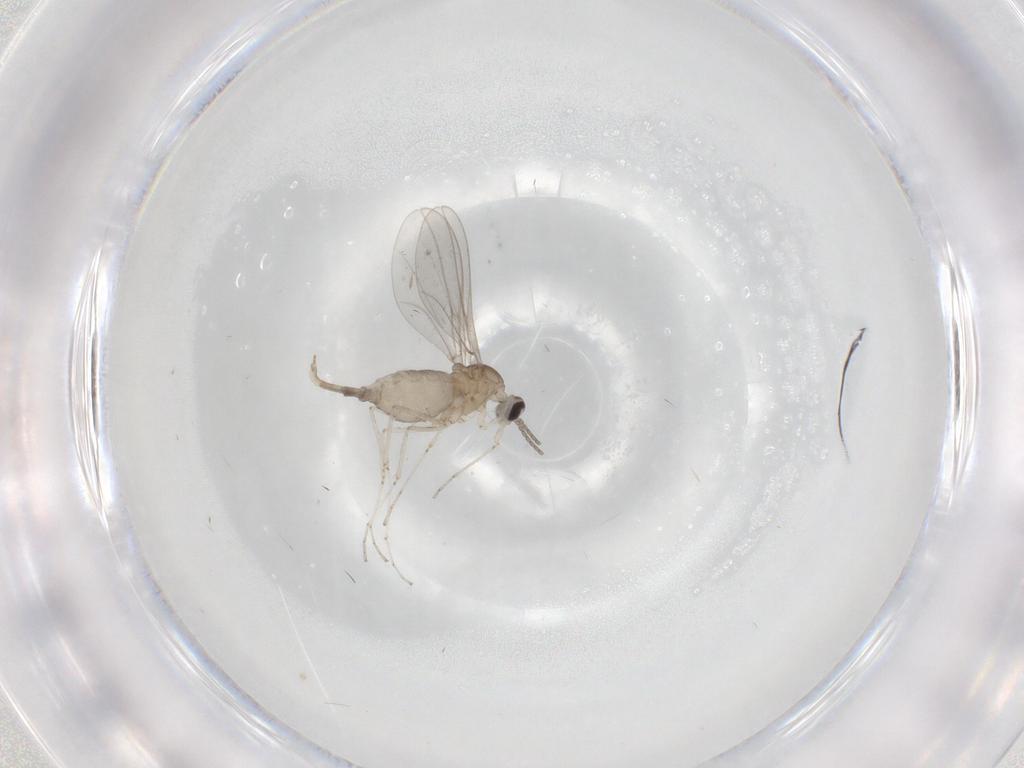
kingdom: Animalia
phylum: Arthropoda
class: Insecta
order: Diptera
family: Cecidomyiidae
